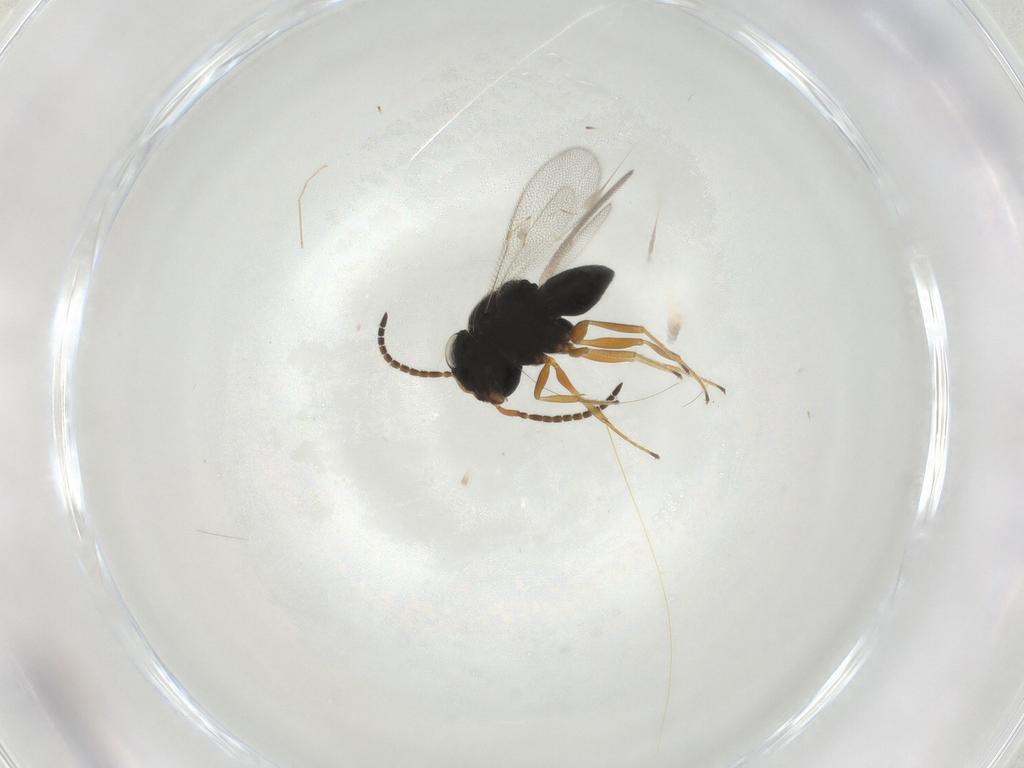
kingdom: Animalia
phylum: Arthropoda
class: Insecta
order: Hymenoptera
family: Scelionidae
